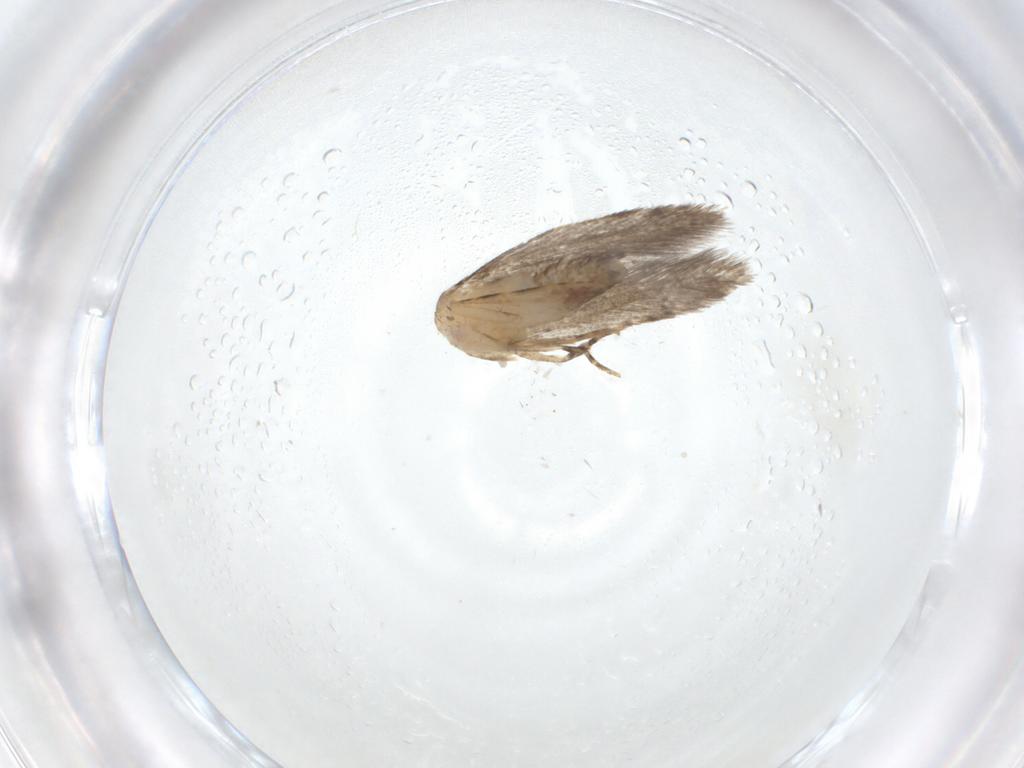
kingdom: Animalia
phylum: Arthropoda
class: Insecta
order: Lepidoptera
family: Tineidae
